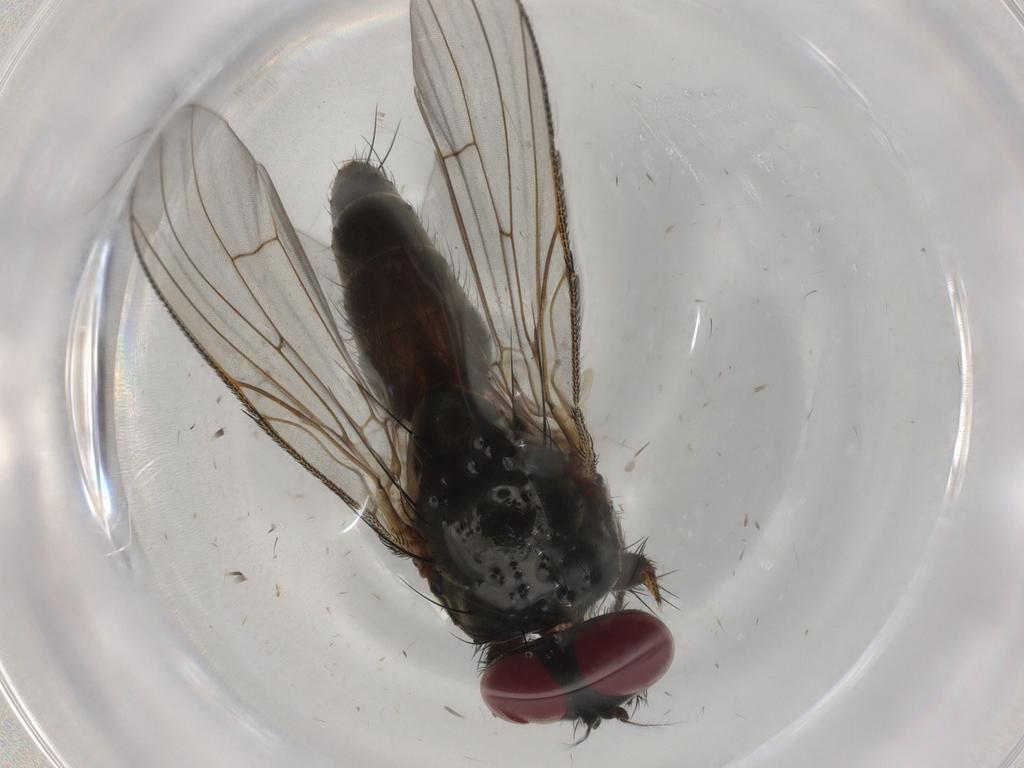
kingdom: Animalia
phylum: Arthropoda
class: Insecta
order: Diptera
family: Muscidae
